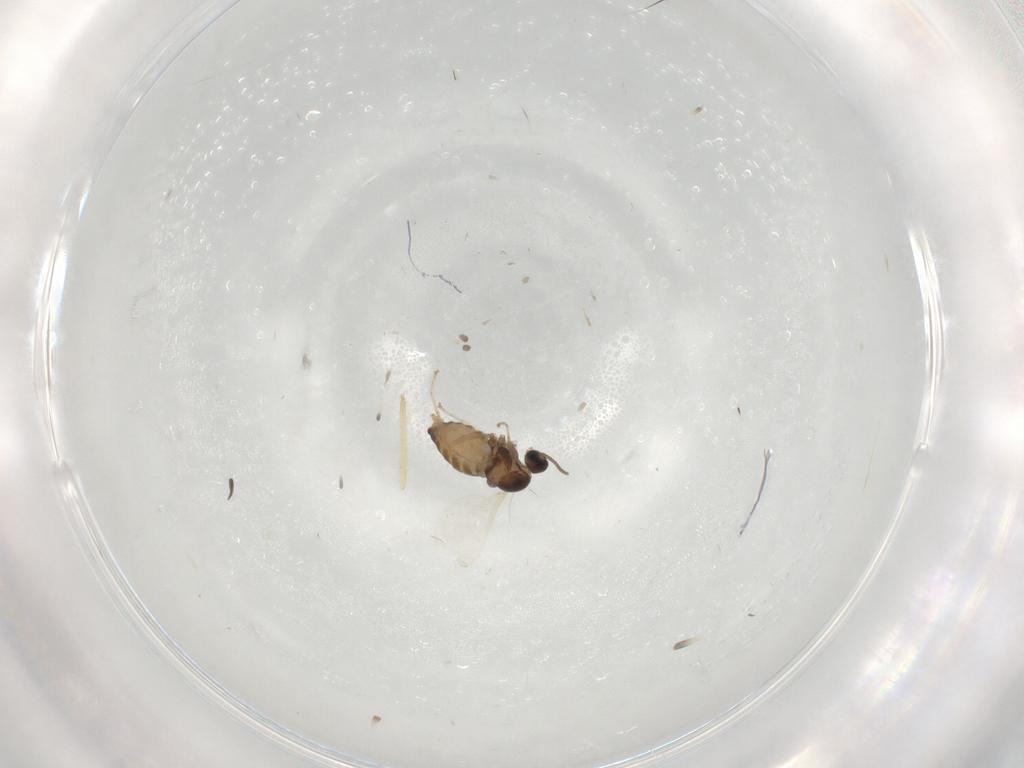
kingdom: Animalia
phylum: Arthropoda
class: Insecta
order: Diptera
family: Cecidomyiidae
